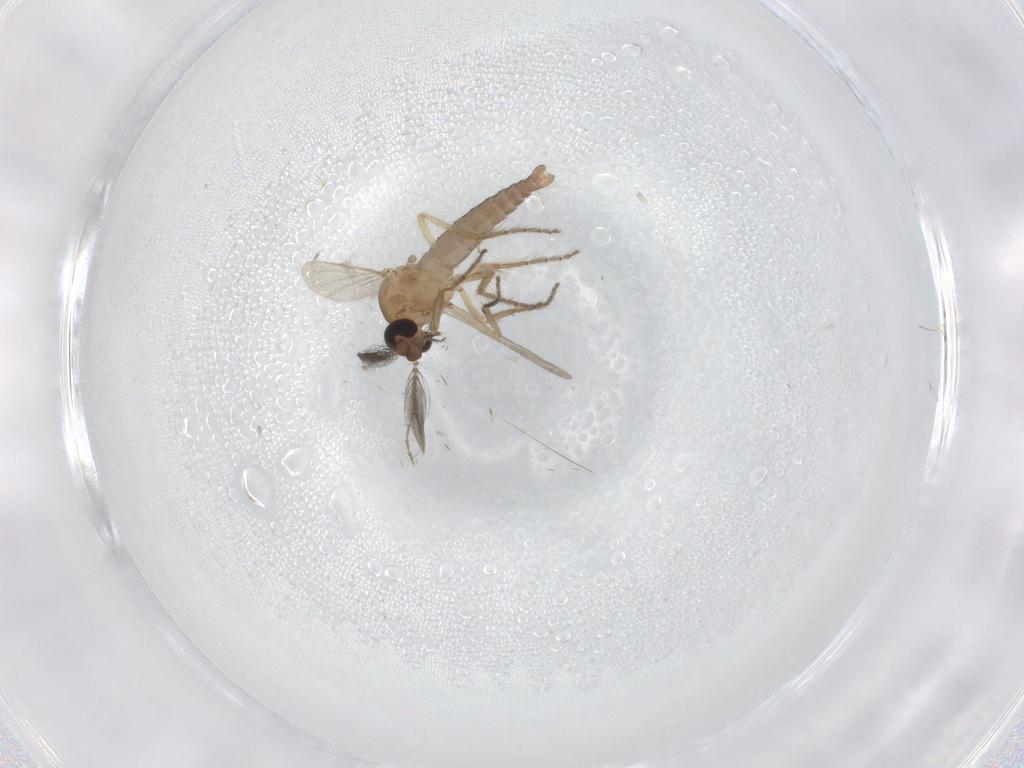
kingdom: Animalia
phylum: Arthropoda
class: Insecta
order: Diptera
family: Ceratopogonidae
